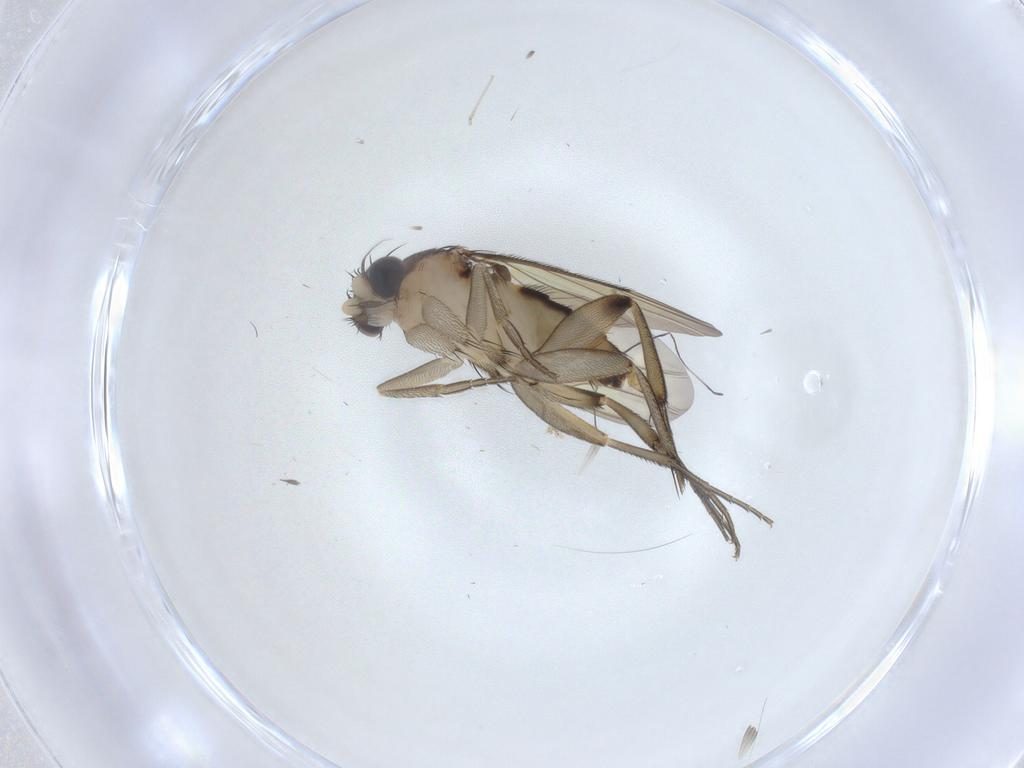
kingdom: Animalia
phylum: Arthropoda
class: Insecta
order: Diptera
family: Phoridae
